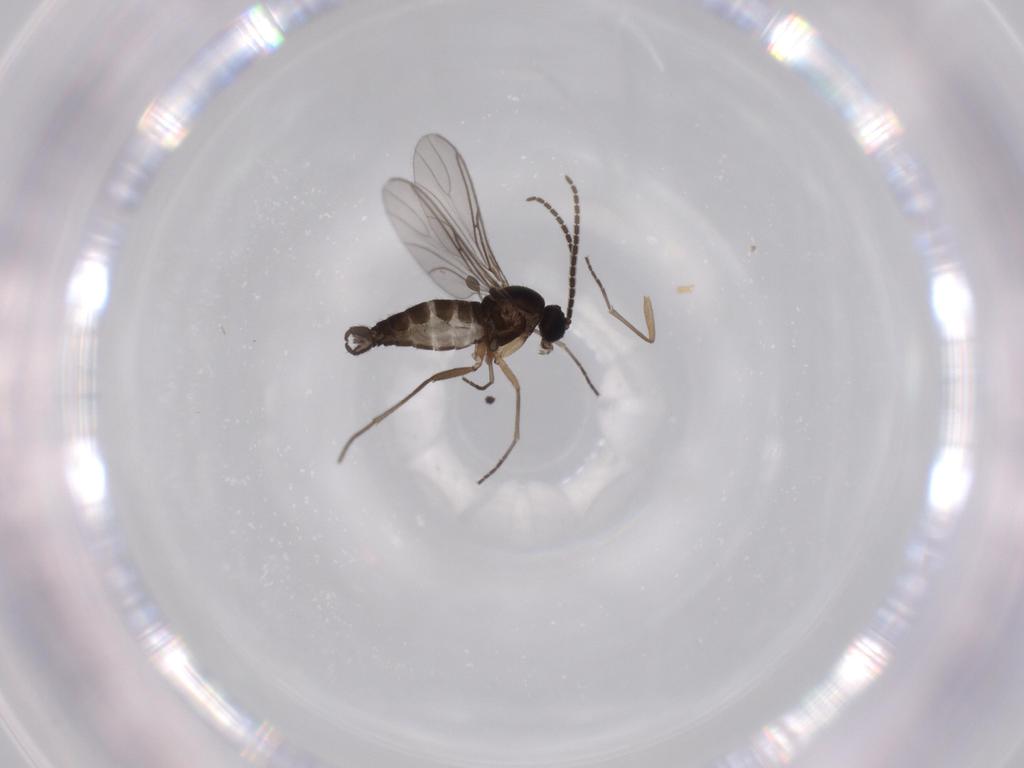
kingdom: Animalia
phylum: Arthropoda
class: Insecta
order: Diptera
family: Sciaridae
